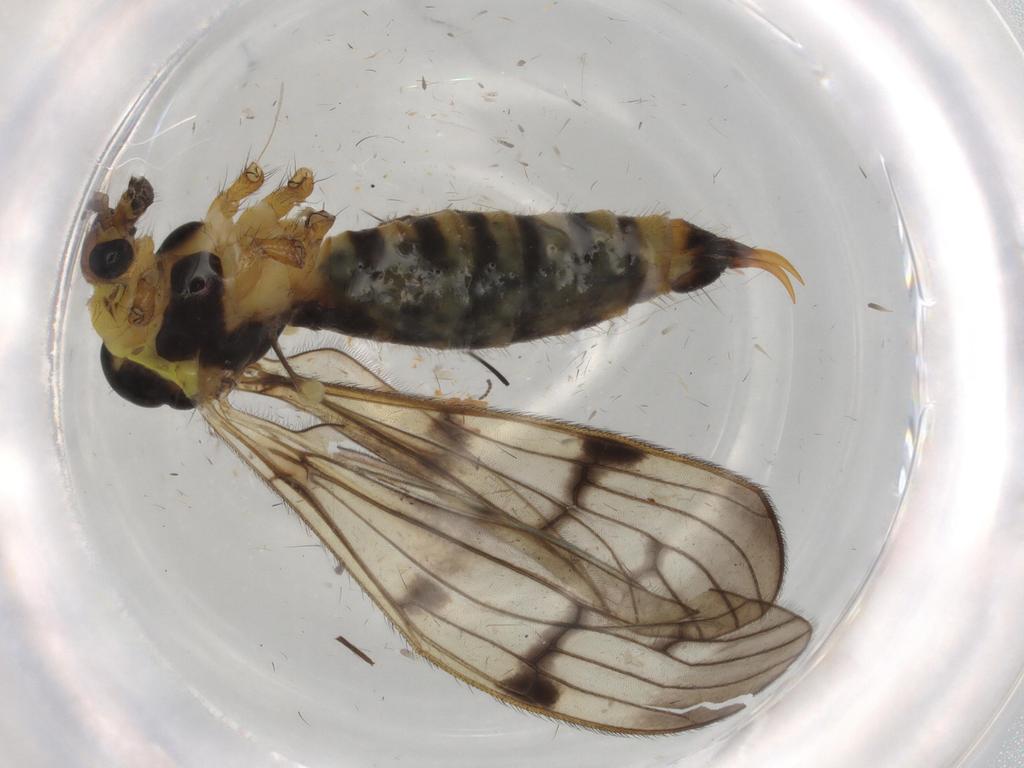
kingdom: Animalia
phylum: Arthropoda
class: Insecta
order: Diptera
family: Limoniidae
